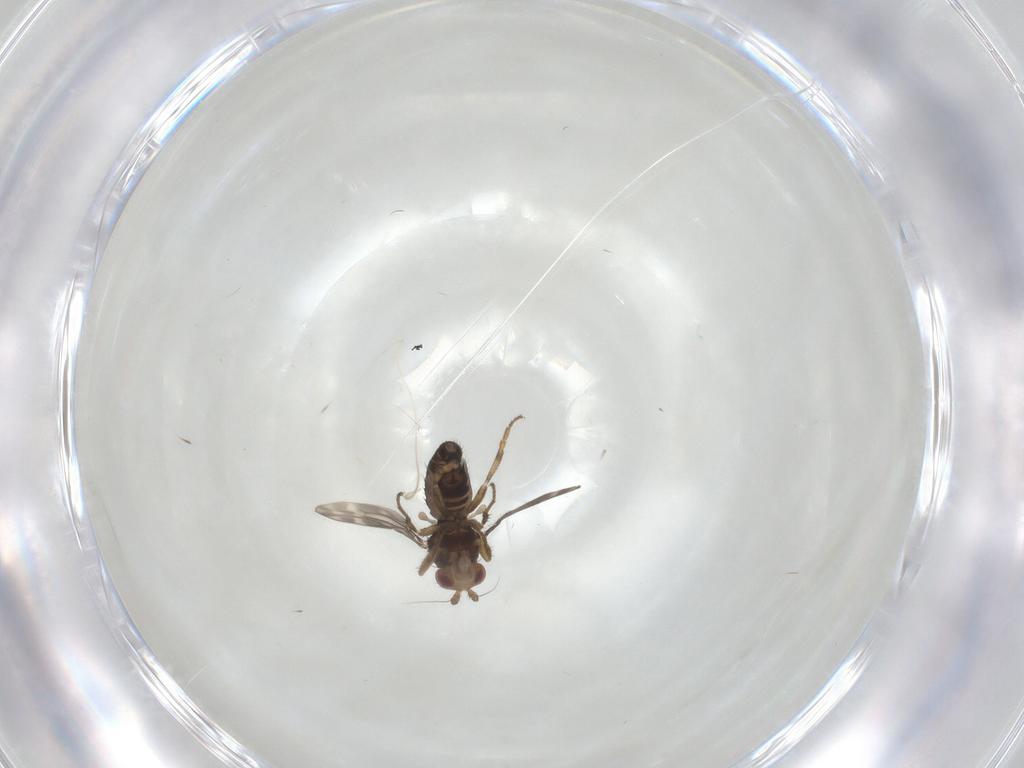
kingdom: Animalia
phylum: Arthropoda
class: Insecta
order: Diptera
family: Sphaeroceridae
